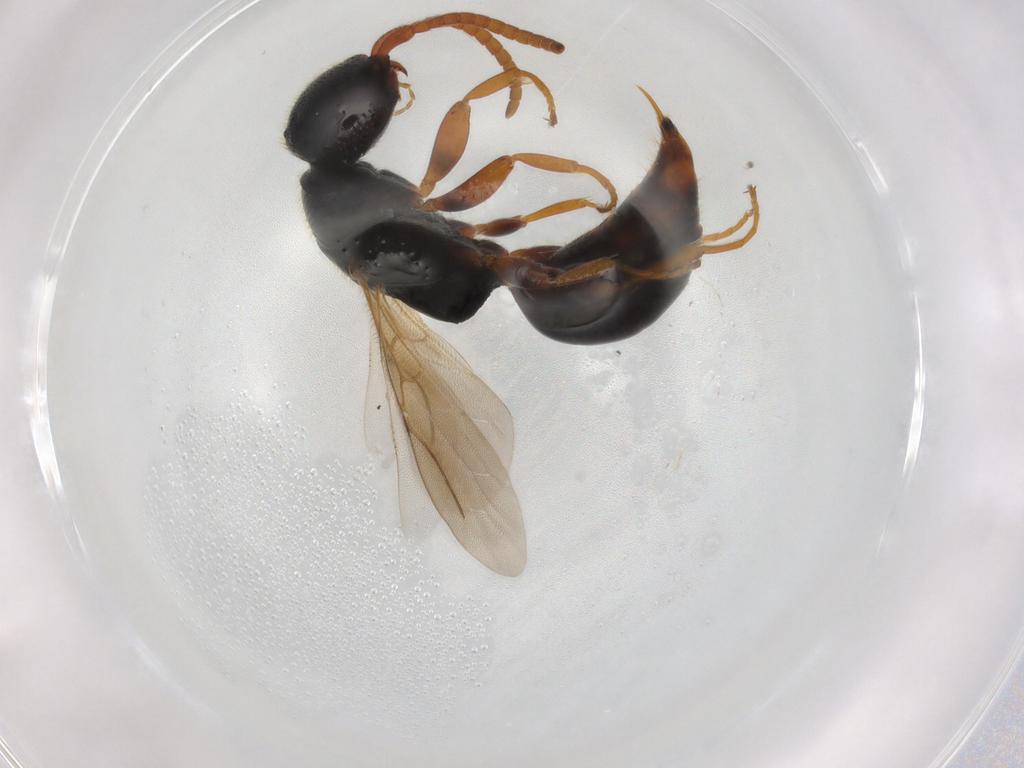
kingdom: Animalia
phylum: Arthropoda
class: Insecta
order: Hymenoptera
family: Bethylidae
